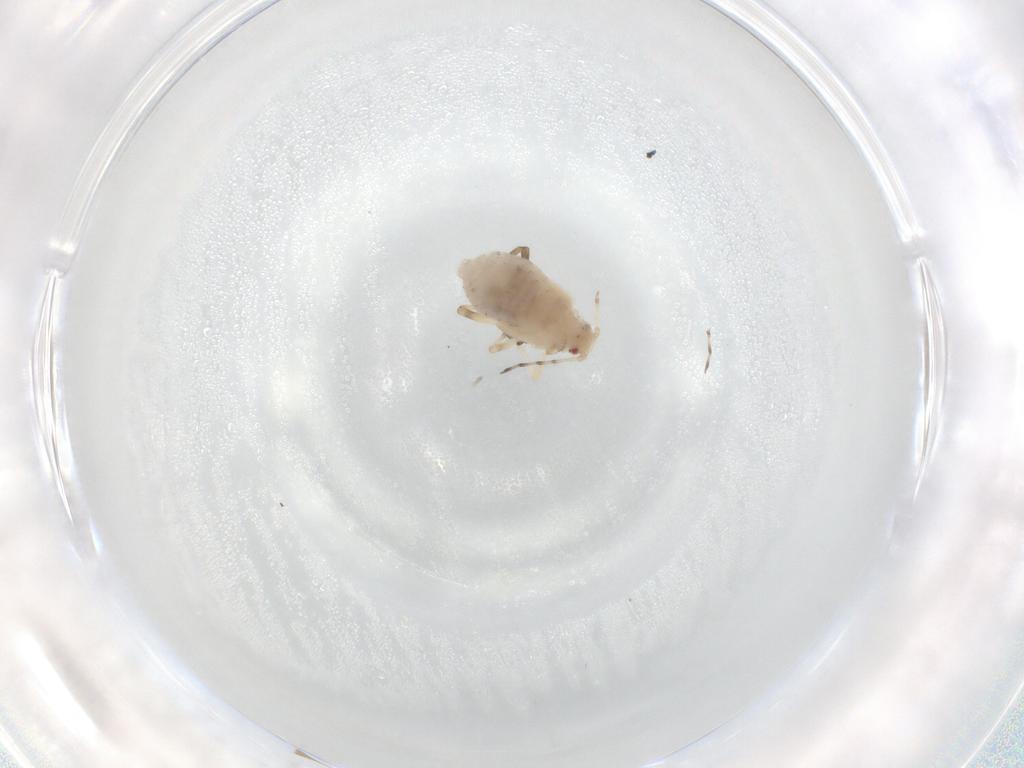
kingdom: Animalia
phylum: Arthropoda
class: Insecta
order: Hemiptera
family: Aphididae
